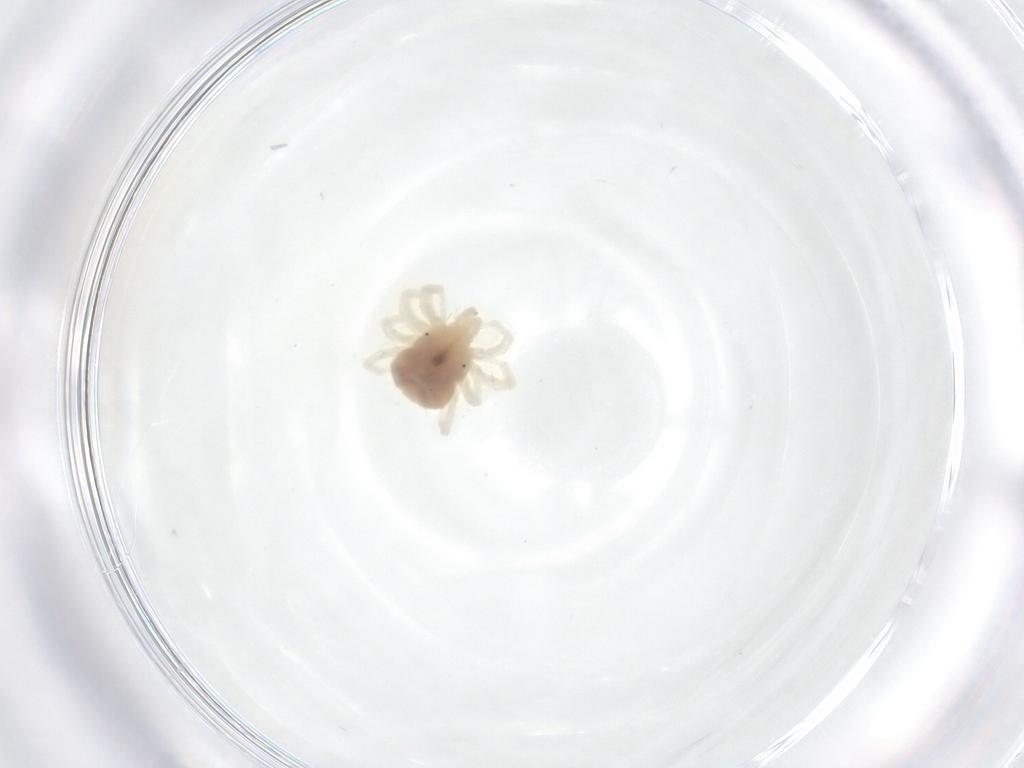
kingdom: Animalia
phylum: Arthropoda
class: Arachnida
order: Trombidiformes
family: Anystidae
